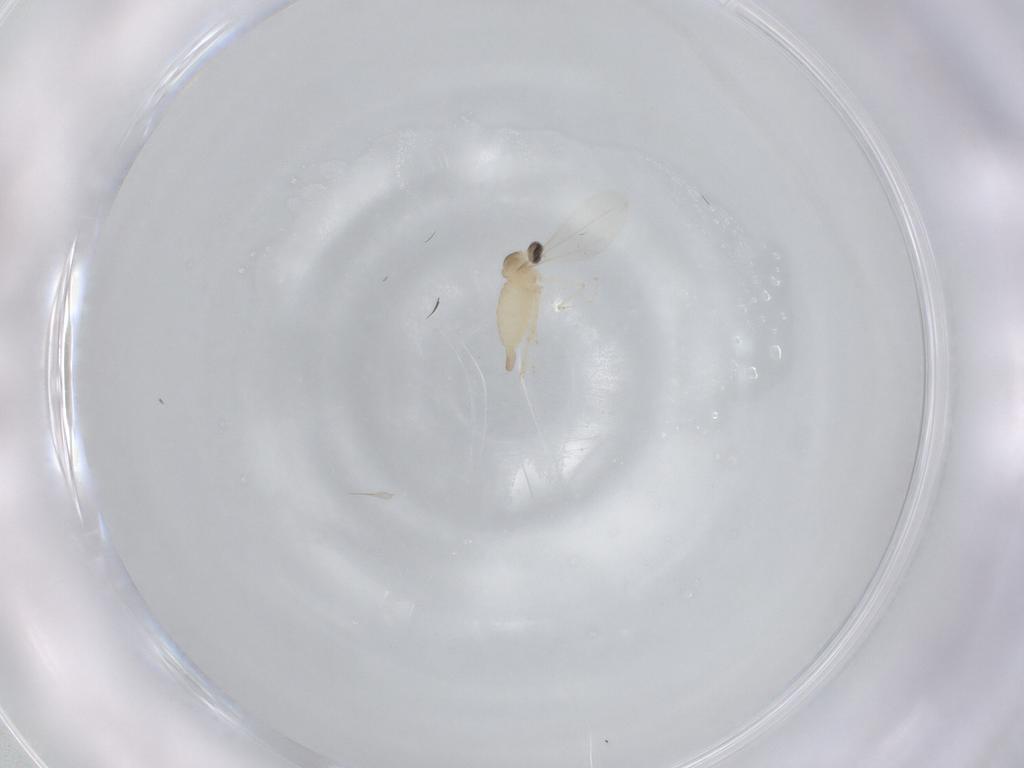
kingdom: Animalia
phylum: Arthropoda
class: Insecta
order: Diptera
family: Cecidomyiidae
